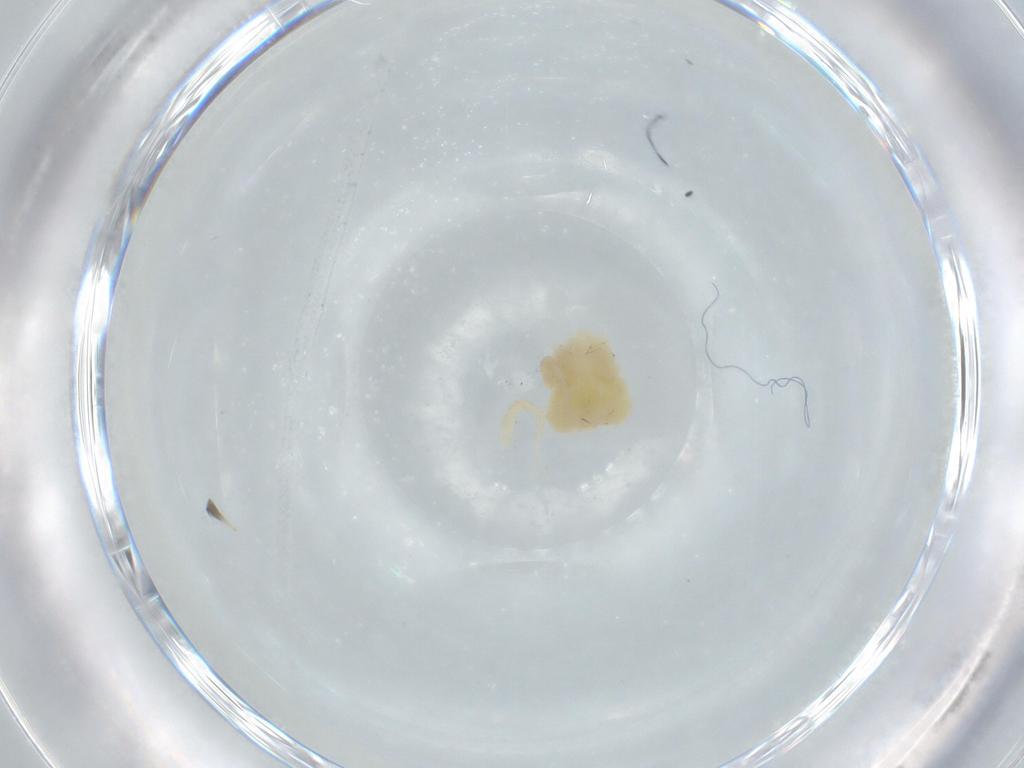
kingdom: Animalia
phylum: Arthropoda
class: Arachnida
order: Trombidiformes
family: Anystidae
